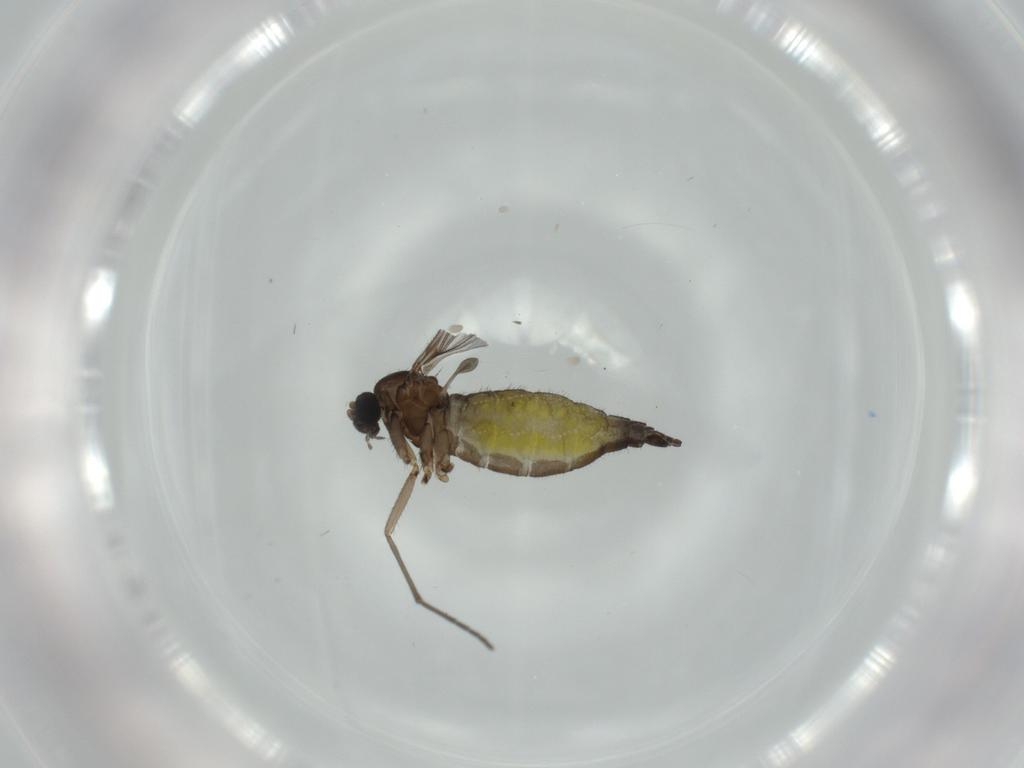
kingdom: Animalia
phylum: Arthropoda
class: Insecta
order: Diptera
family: Sciaridae
